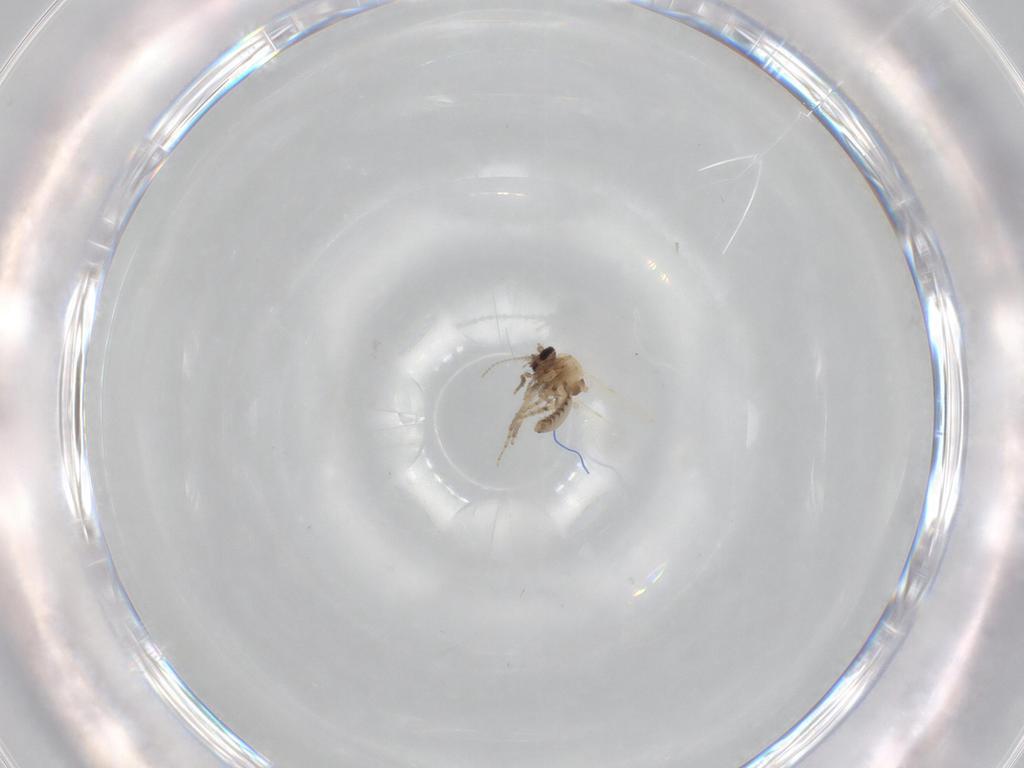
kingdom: Animalia
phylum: Arthropoda
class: Insecta
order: Diptera
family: Ceratopogonidae
